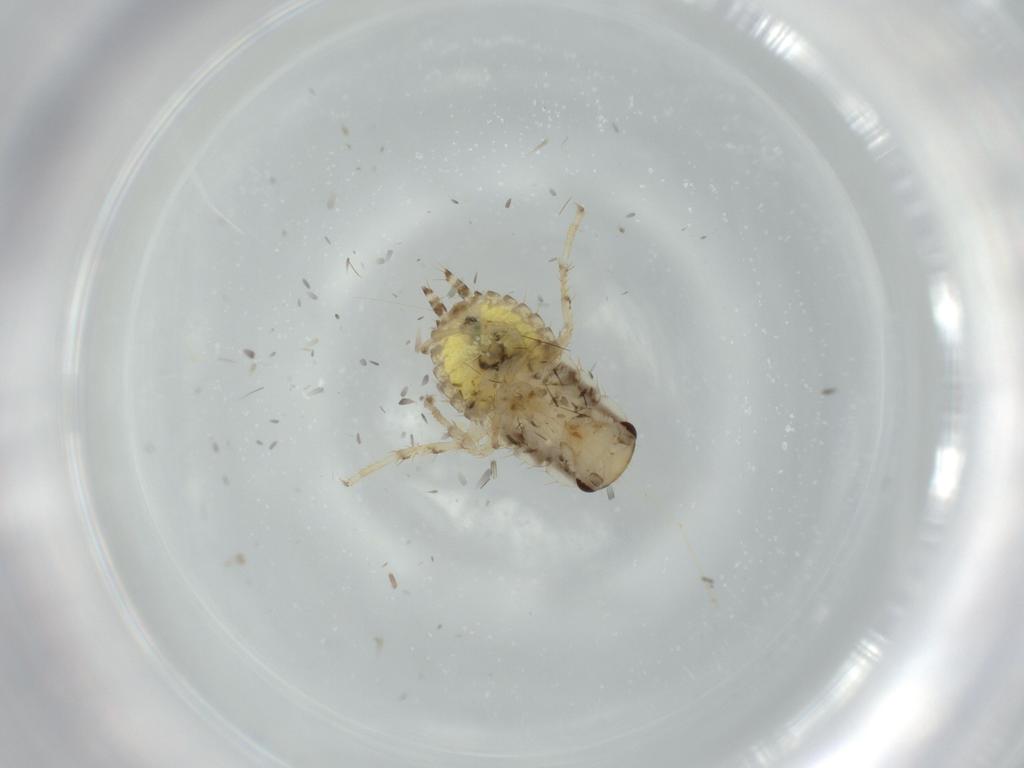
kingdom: Animalia
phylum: Arthropoda
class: Insecta
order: Blattodea
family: Ectobiidae
